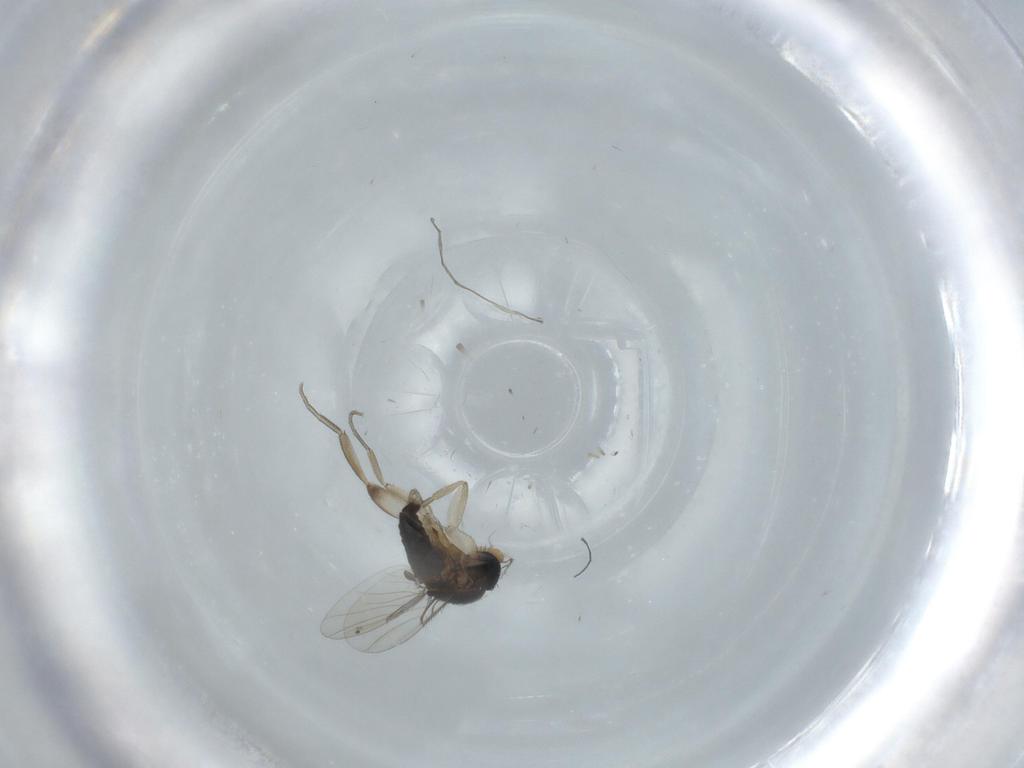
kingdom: Animalia
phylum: Arthropoda
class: Insecta
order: Diptera
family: Phoridae
